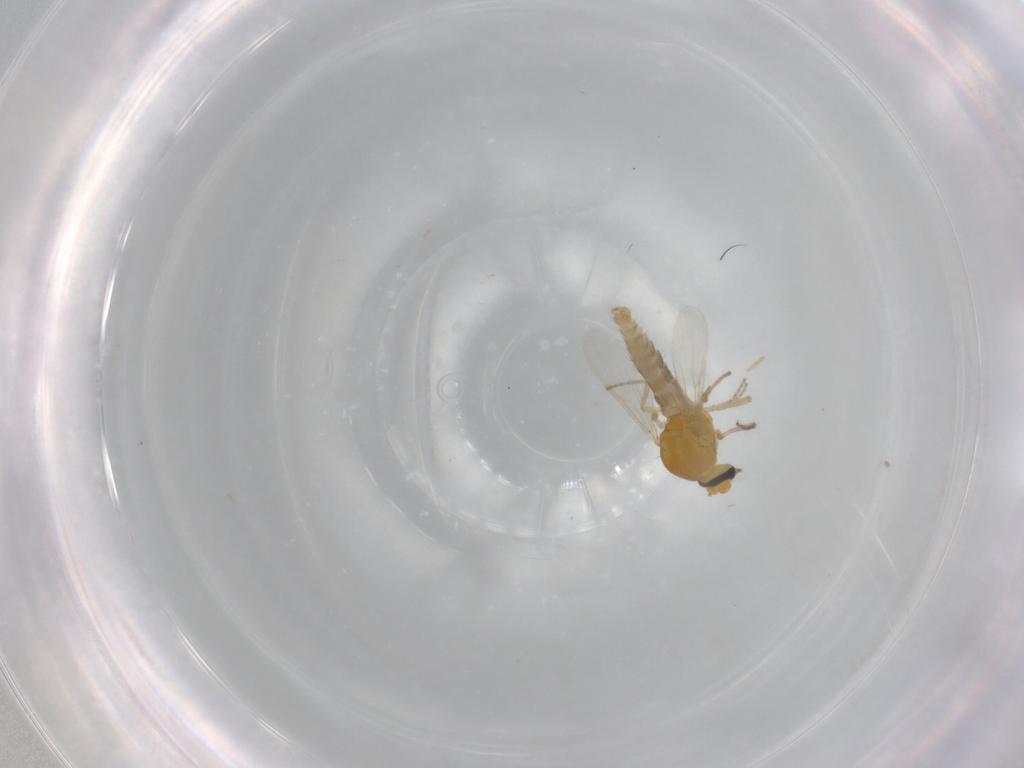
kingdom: Animalia
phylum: Arthropoda
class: Insecta
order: Diptera
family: Ceratopogonidae
